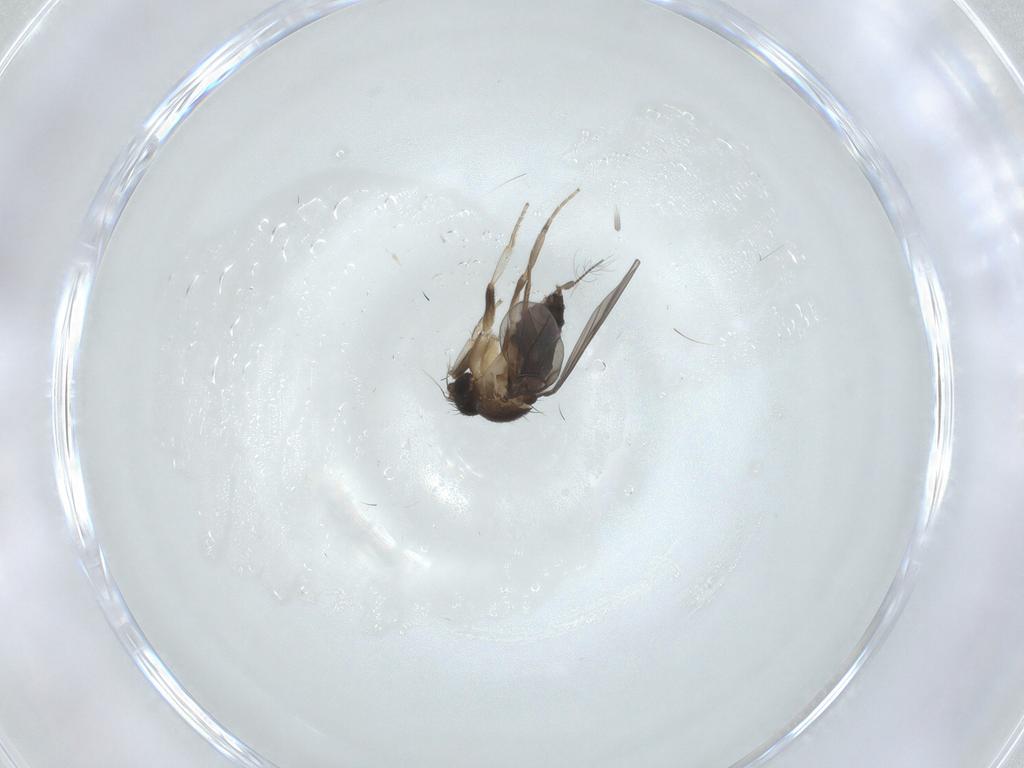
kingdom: Animalia
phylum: Arthropoda
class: Insecta
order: Diptera
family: Phoridae
